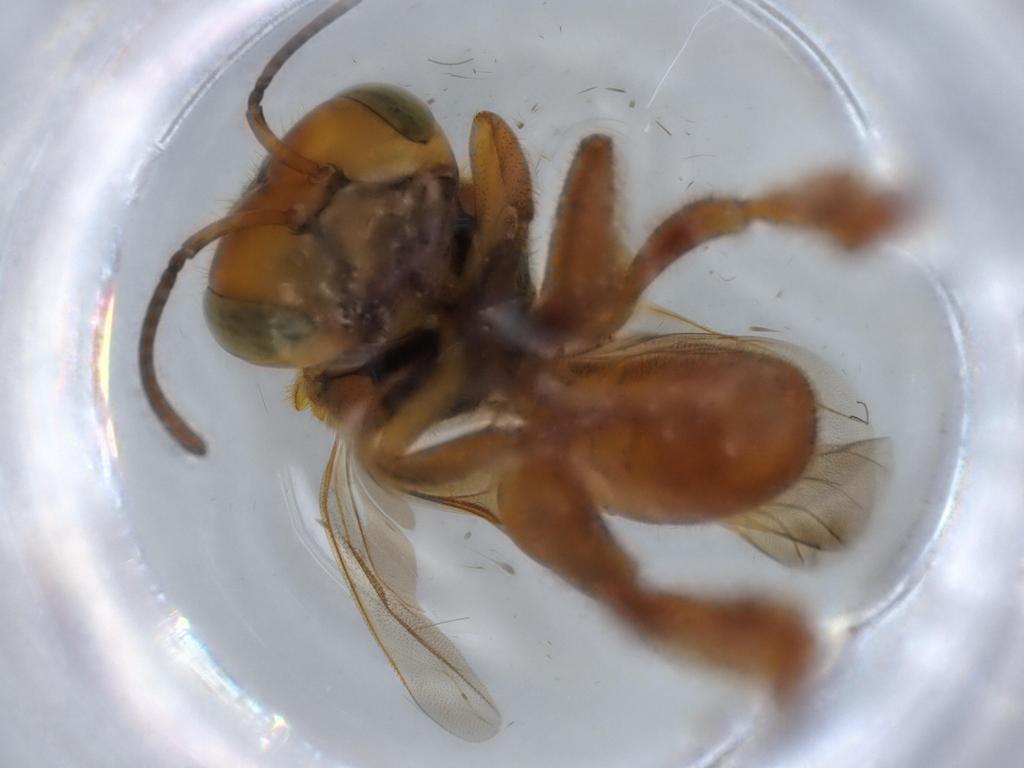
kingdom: Animalia
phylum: Arthropoda
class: Insecta
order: Hymenoptera
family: Apidae
